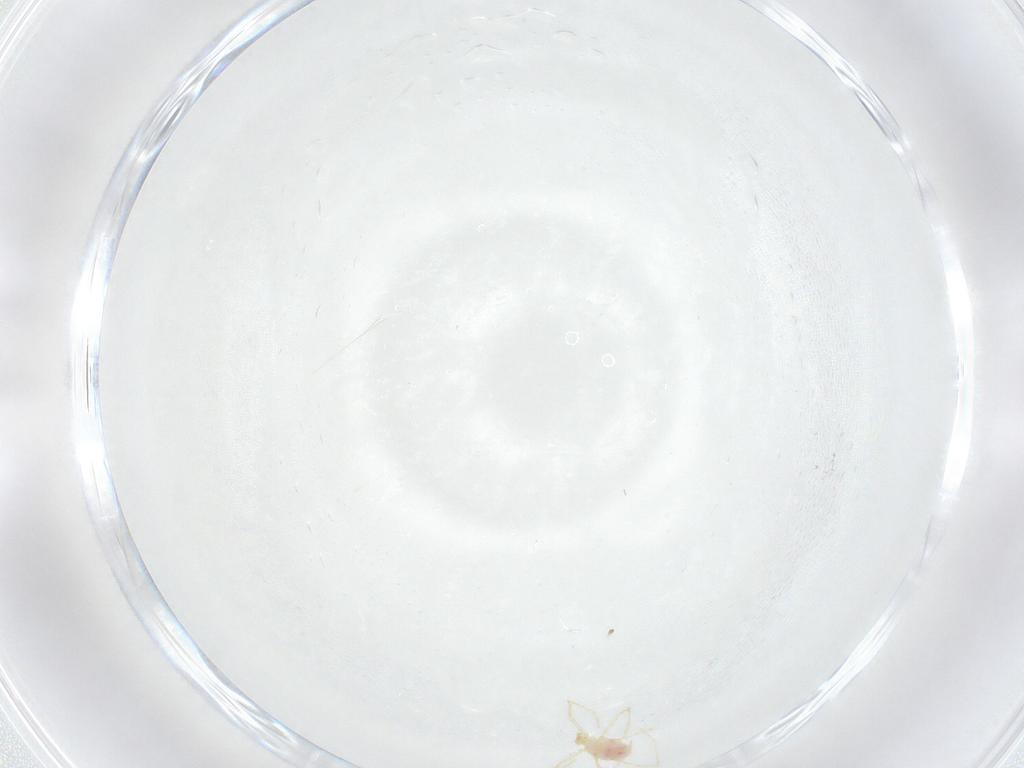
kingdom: Animalia
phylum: Arthropoda
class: Arachnida
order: Trombidiformes
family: Erythraeidae
